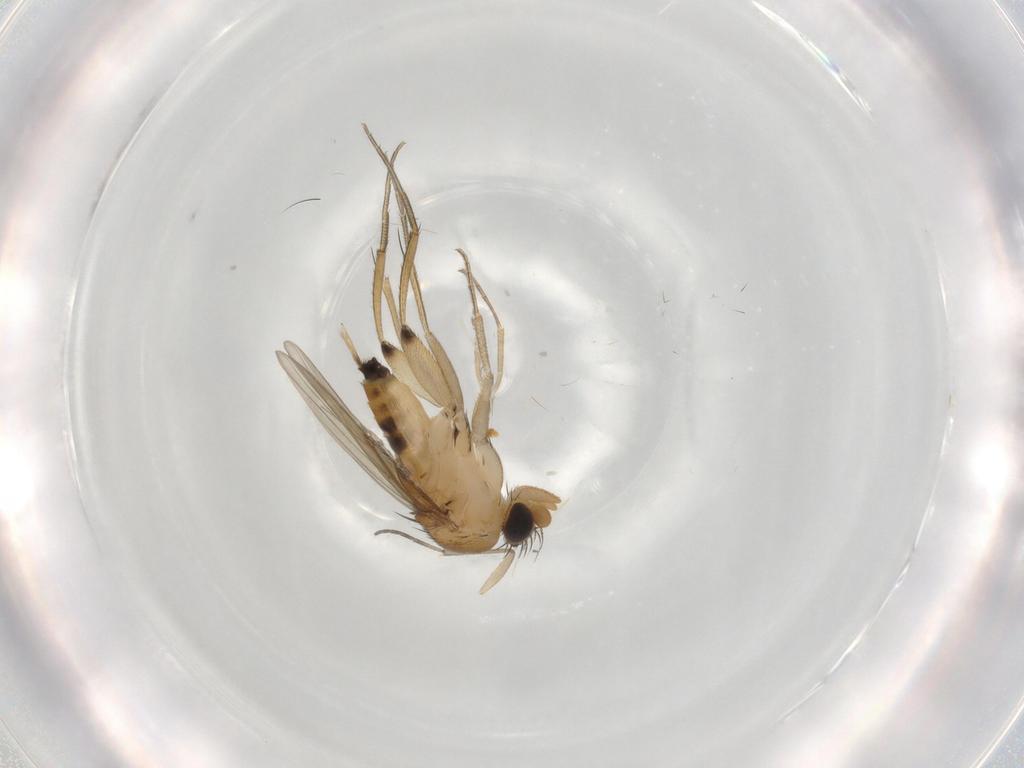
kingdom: Animalia
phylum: Arthropoda
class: Insecta
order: Diptera
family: Phoridae
